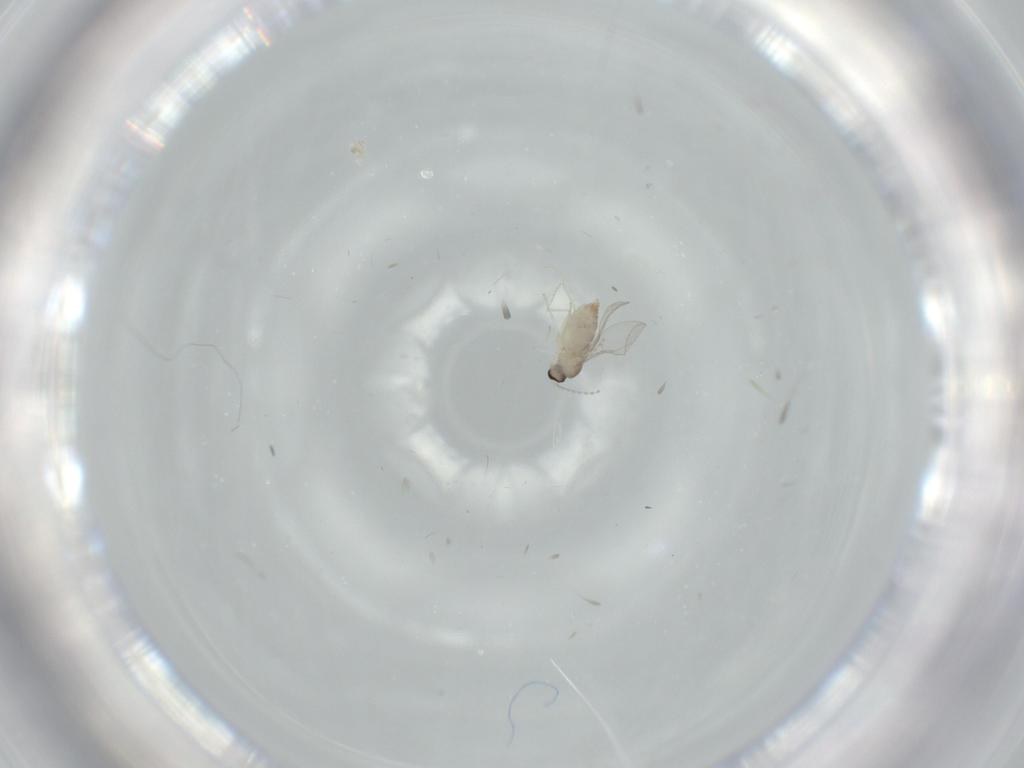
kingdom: Animalia
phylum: Arthropoda
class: Insecta
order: Diptera
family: Cecidomyiidae
